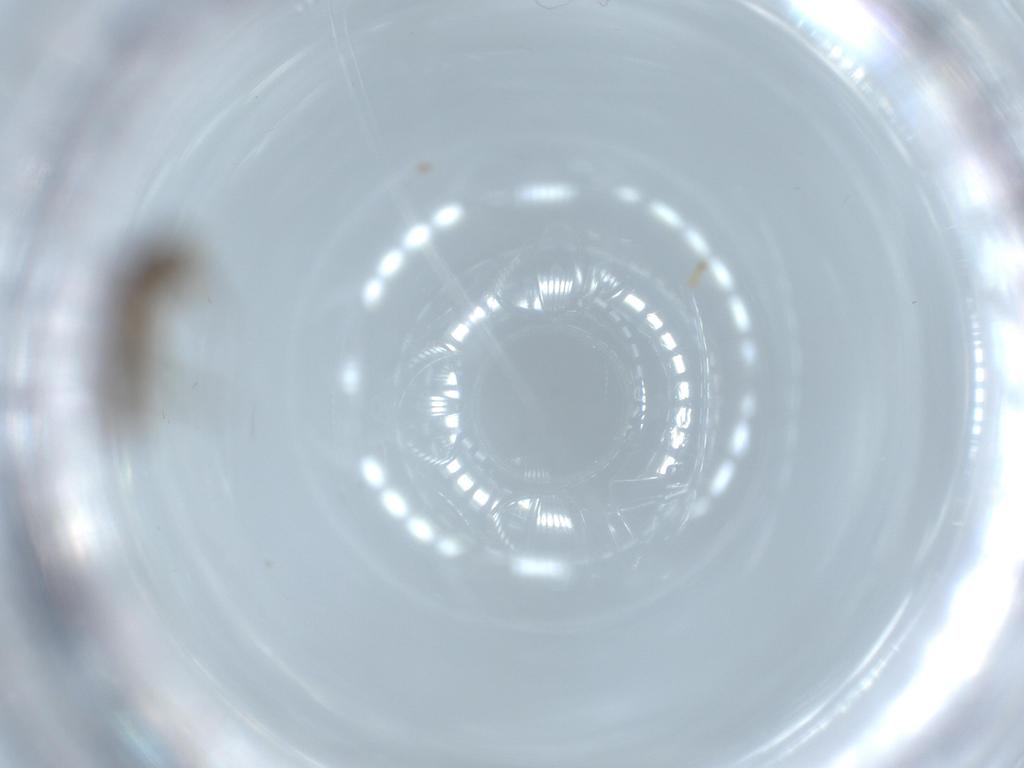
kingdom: Animalia
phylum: Arthropoda
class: Insecta
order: Hymenoptera
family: Formicidae
